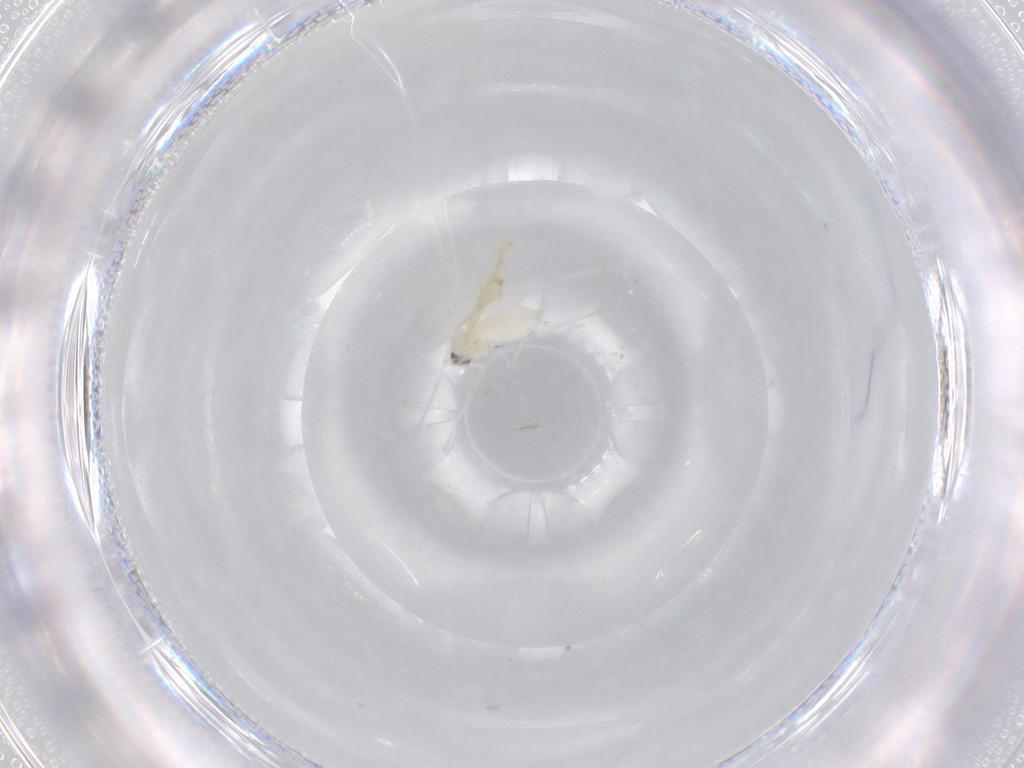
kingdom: Animalia
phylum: Arthropoda
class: Insecta
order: Diptera
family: Cecidomyiidae
